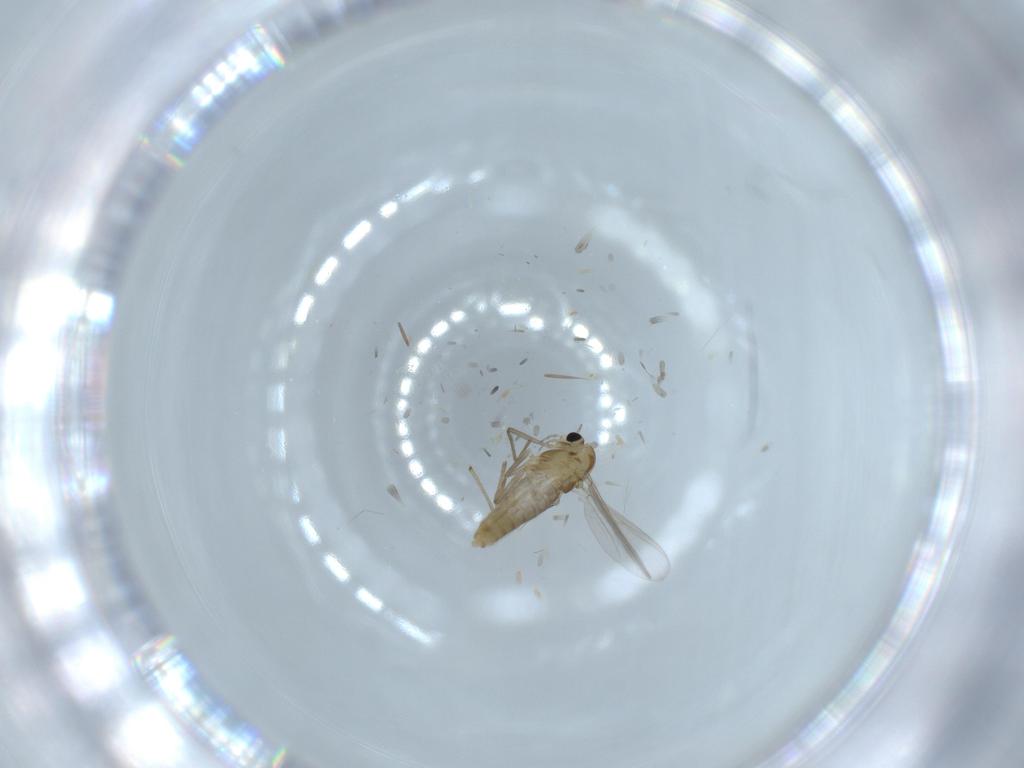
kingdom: Animalia
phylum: Arthropoda
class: Insecta
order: Diptera
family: Chironomidae
